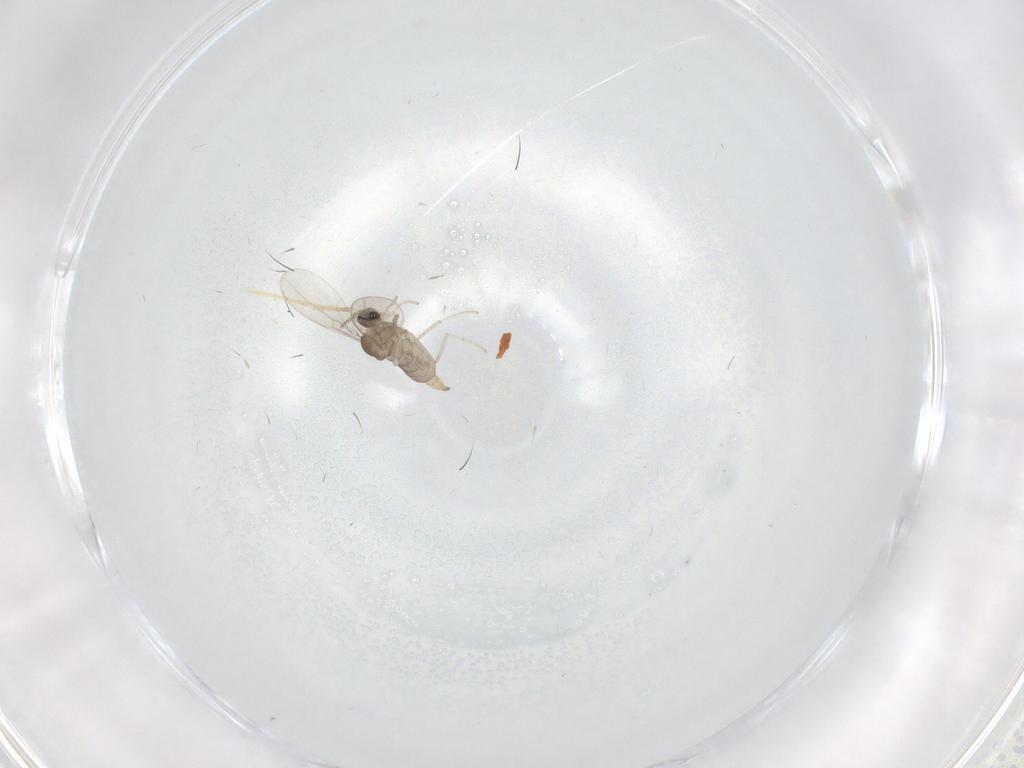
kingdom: Animalia
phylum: Arthropoda
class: Insecta
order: Diptera
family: Cecidomyiidae
